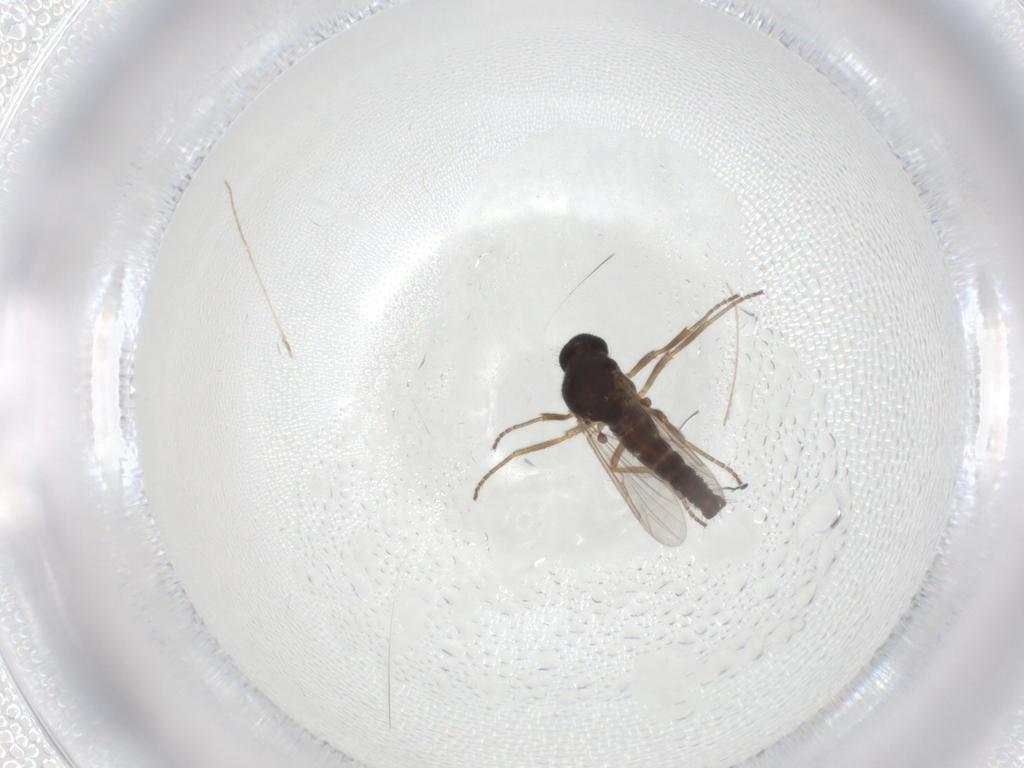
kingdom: Animalia
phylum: Arthropoda
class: Insecta
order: Diptera
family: Ceratopogonidae
